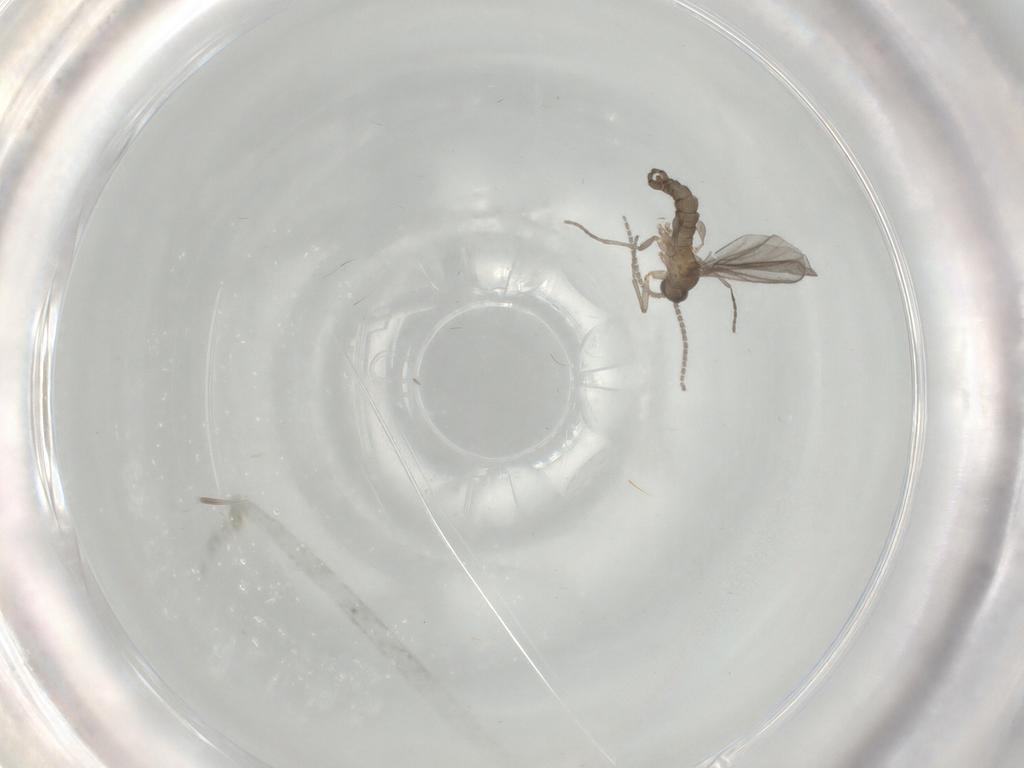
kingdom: Animalia
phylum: Arthropoda
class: Insecta
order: Diptera
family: Sciaridae
